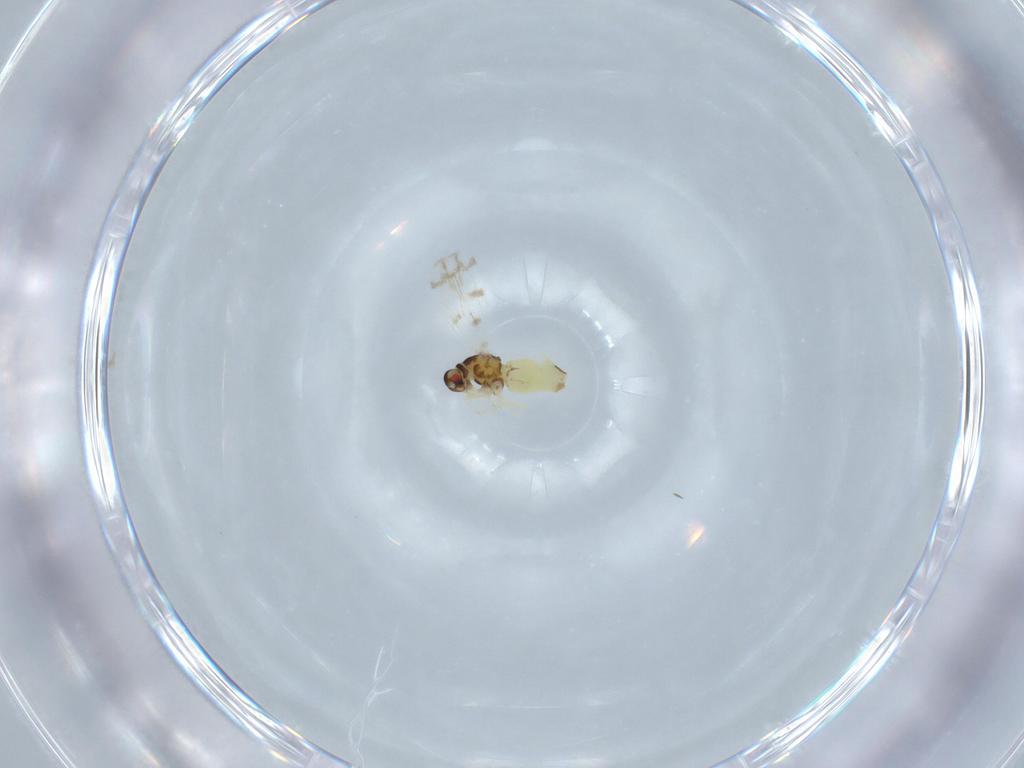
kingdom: Animalia
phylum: Arthropoda
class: Insecta
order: Hemiptera
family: Aleyrodidae
